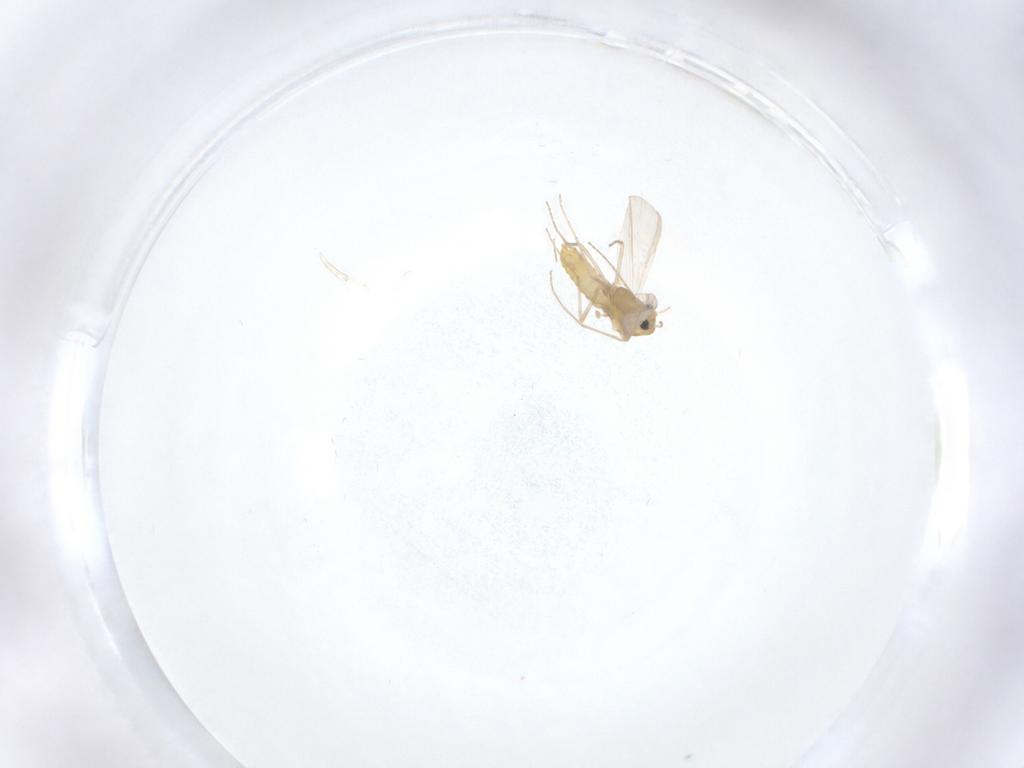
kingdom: Animalia
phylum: Arthropoda
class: Insecta
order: Diptera
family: Chironomidae
